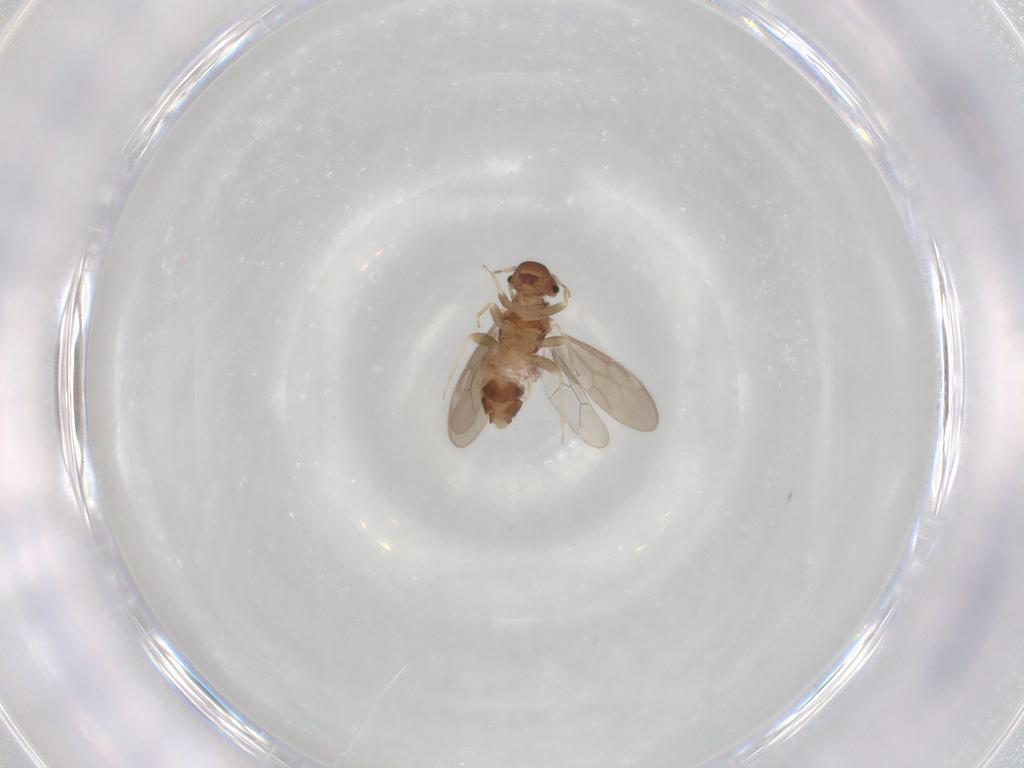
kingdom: Animalia
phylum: Arthropoda
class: Insecta
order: Psocodea
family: Archipsocidae
